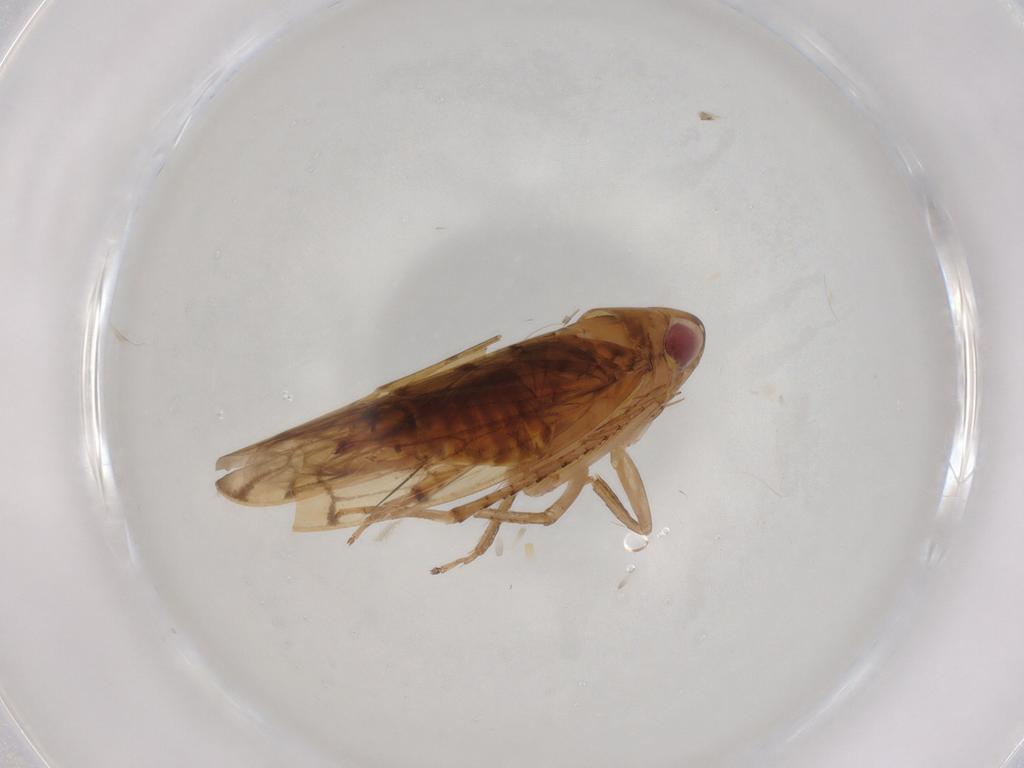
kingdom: Animalia
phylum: Arthropoda
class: Insecta
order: Hemiptera
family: Cicadellidae
